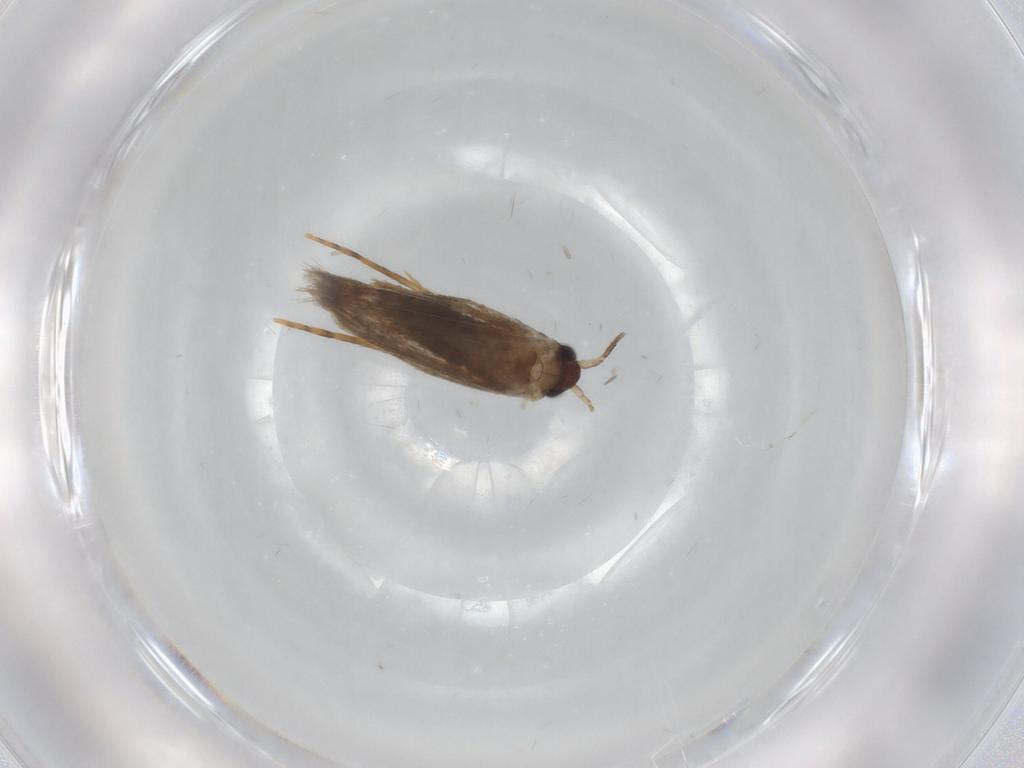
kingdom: Animalia
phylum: Arthropoda
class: Insecta
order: Lepidoptera
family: Tineidae
